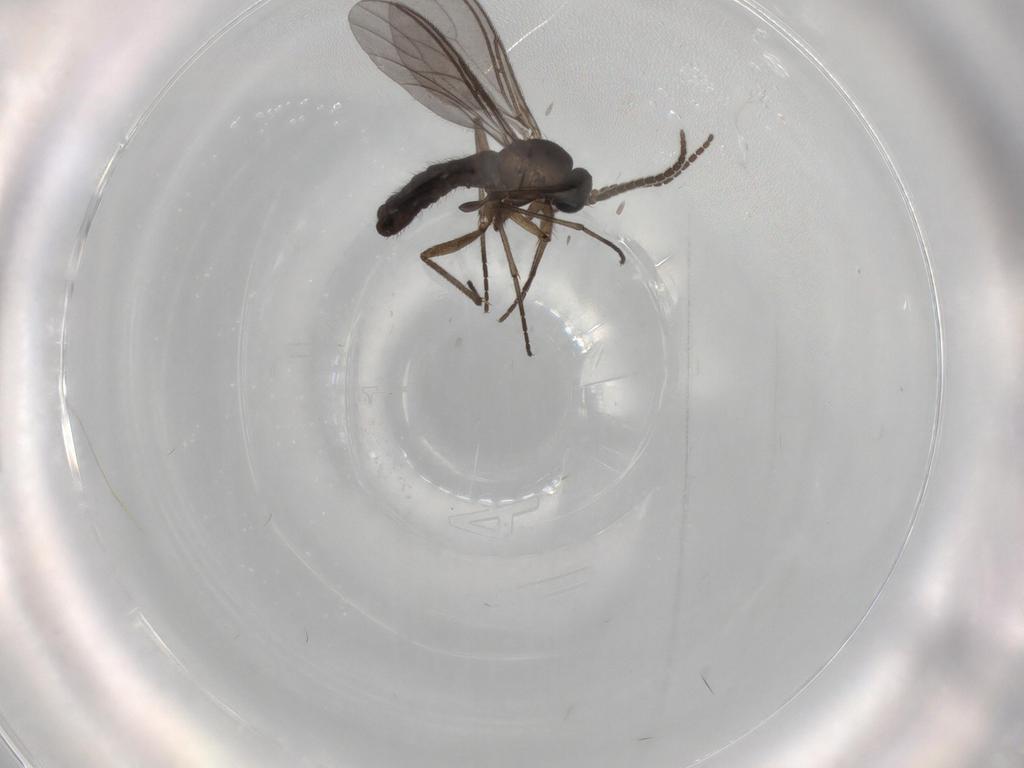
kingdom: Animalia
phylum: Arthropoda
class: Insecta
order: Diptera
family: Sciaridae
